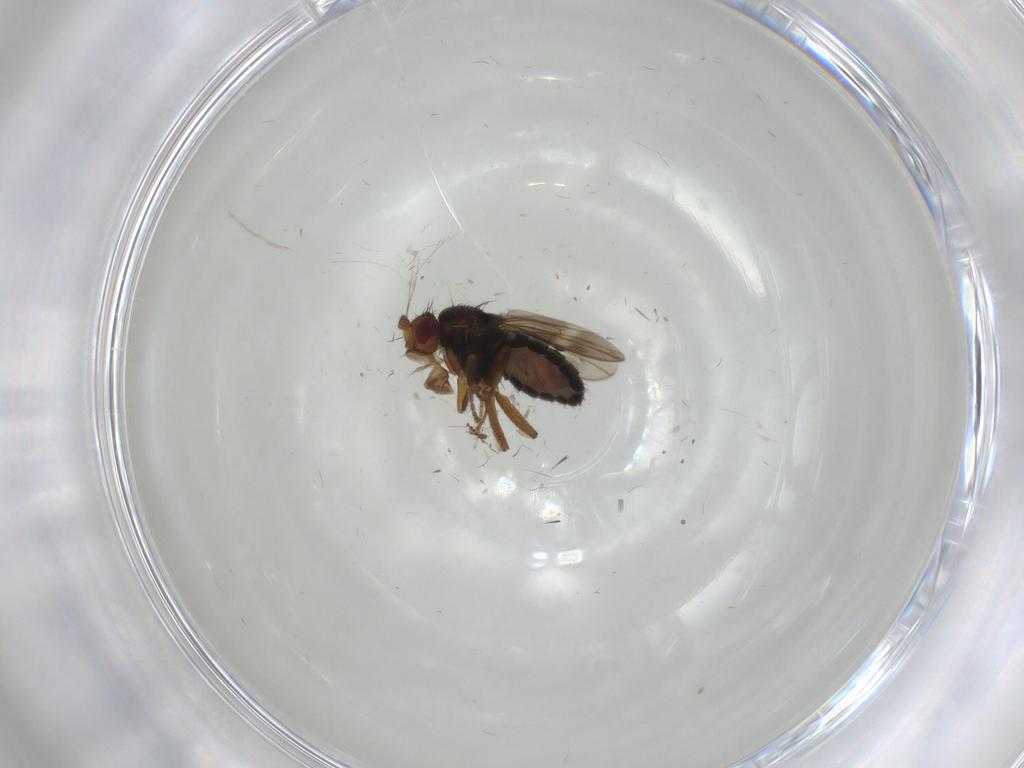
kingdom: Animalia
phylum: Arthropoda
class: Insecta
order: Diptera
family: Sphaeroceridae
